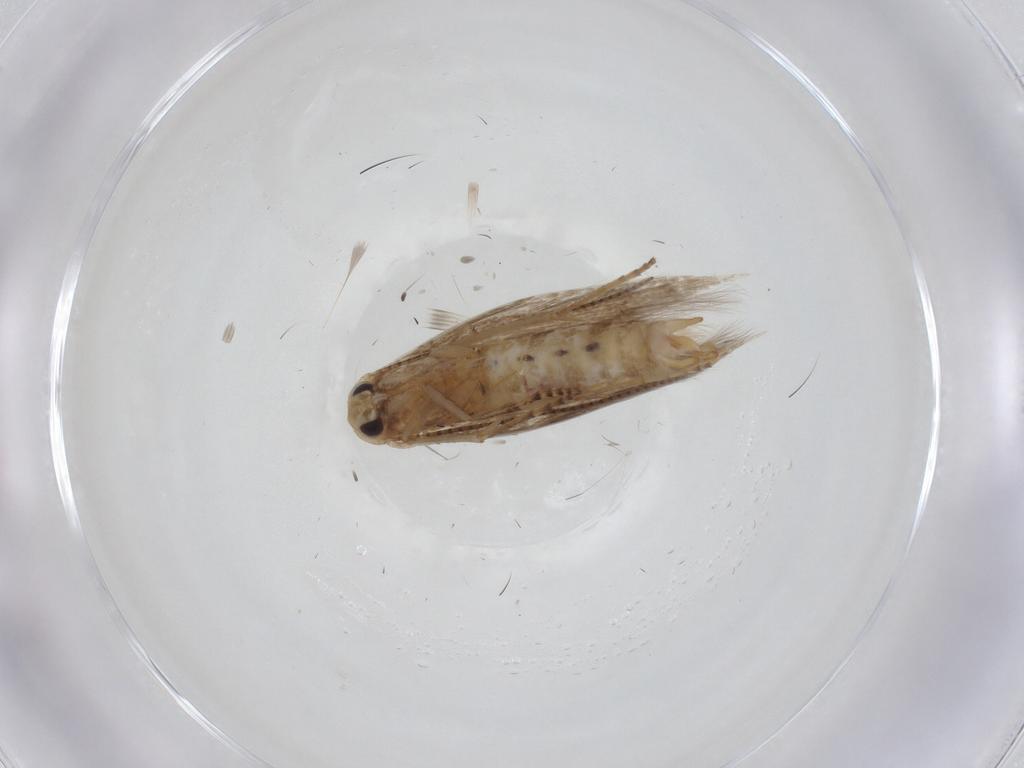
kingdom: Animalia
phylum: Arthropoda
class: Insecta
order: Lepidoptera
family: Bucculatricidae
